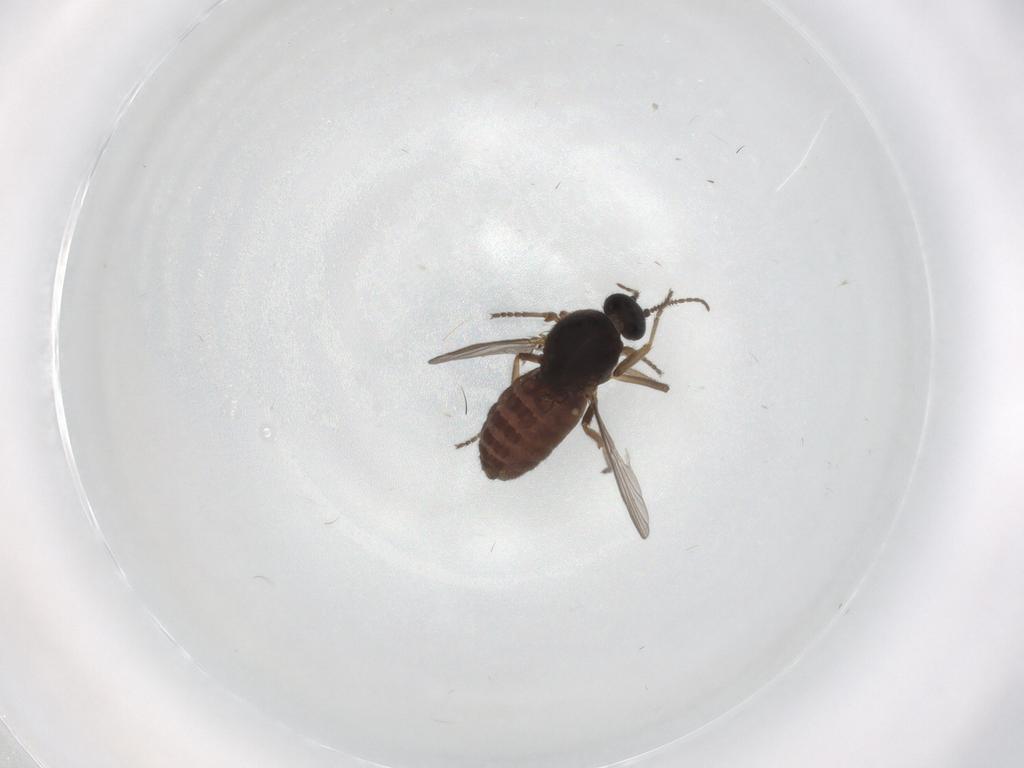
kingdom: Animalia
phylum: Arthropoda
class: Insecta
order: Diptera
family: Ceratopogonidae
